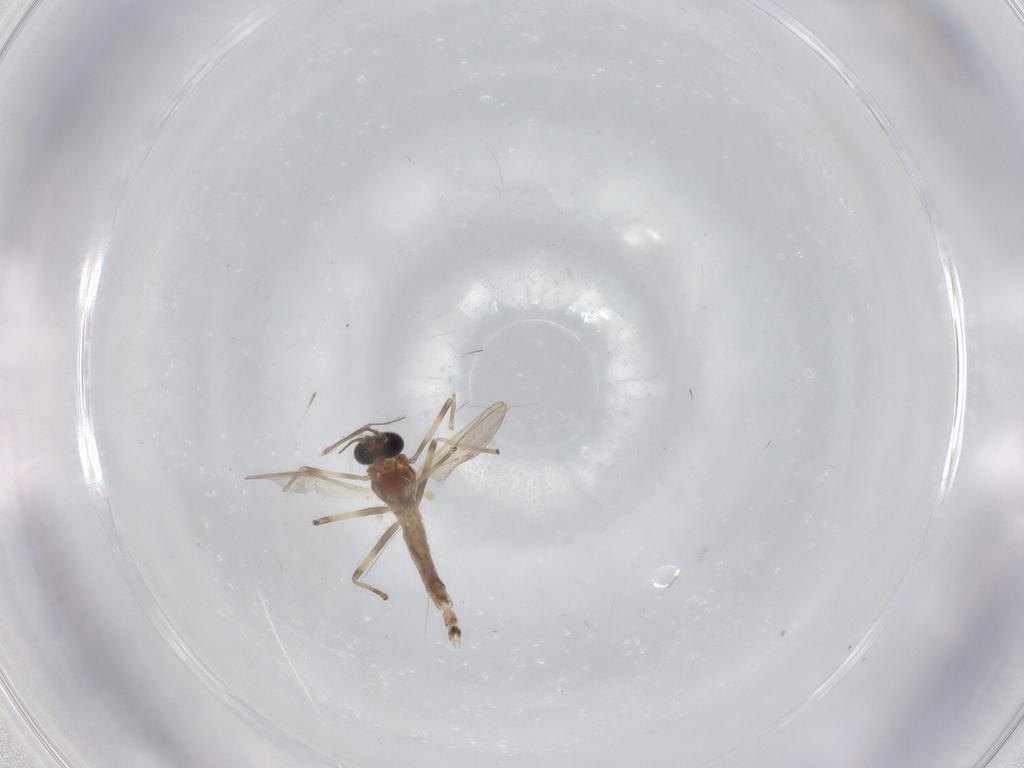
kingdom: Animalia
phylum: Arthropoda
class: Insecta
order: Diptera
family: Chironomidae
